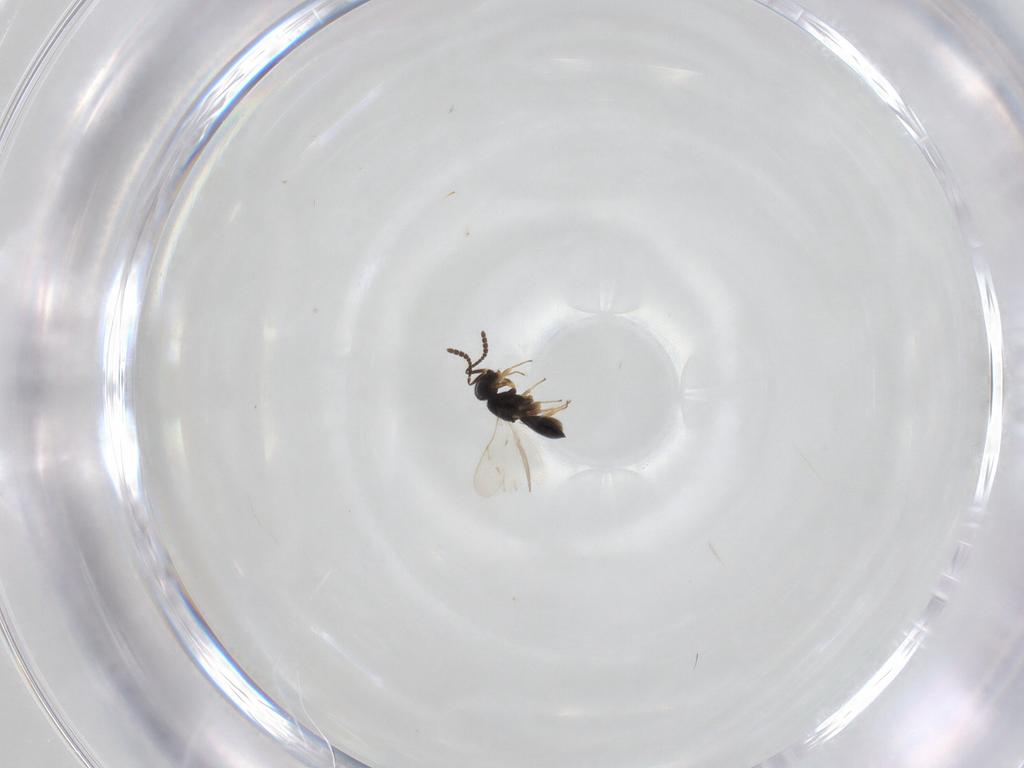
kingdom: Animalia
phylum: Arthropoda
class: Insecta
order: Hymenoptera
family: Scelionidae
